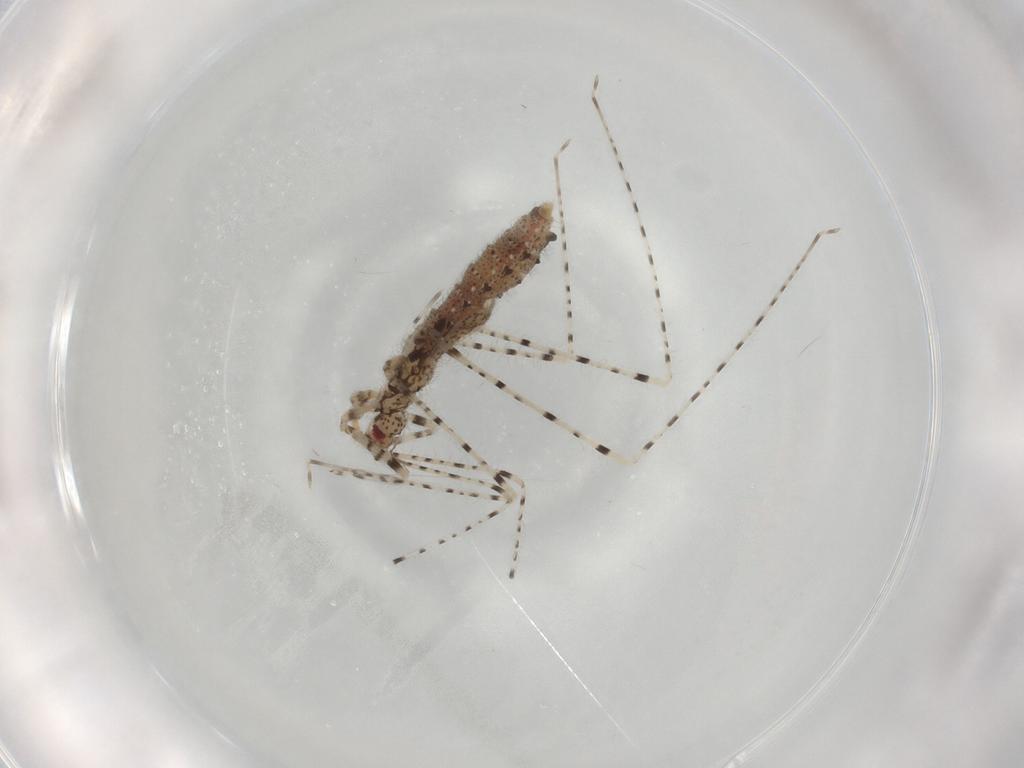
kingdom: Animalia
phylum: Arthropoda
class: Insecta
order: Hemiptera
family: Reduviidae
